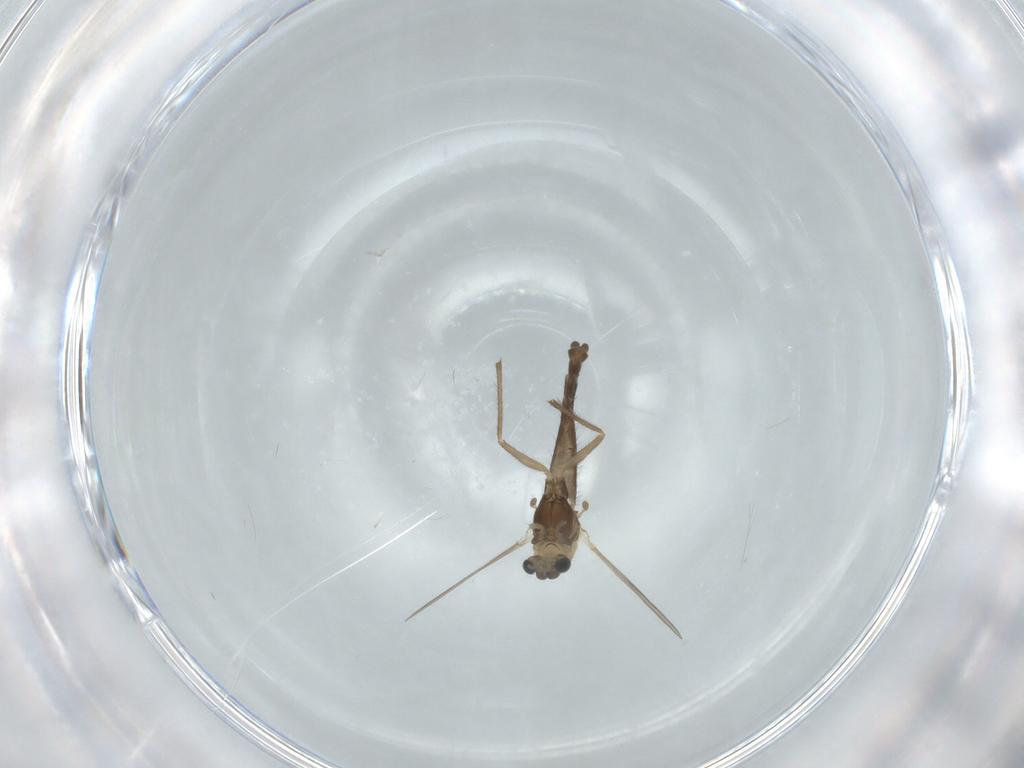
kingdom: Animalia
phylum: Arthropoda
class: Insecta
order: Diptera
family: Chironomidae
